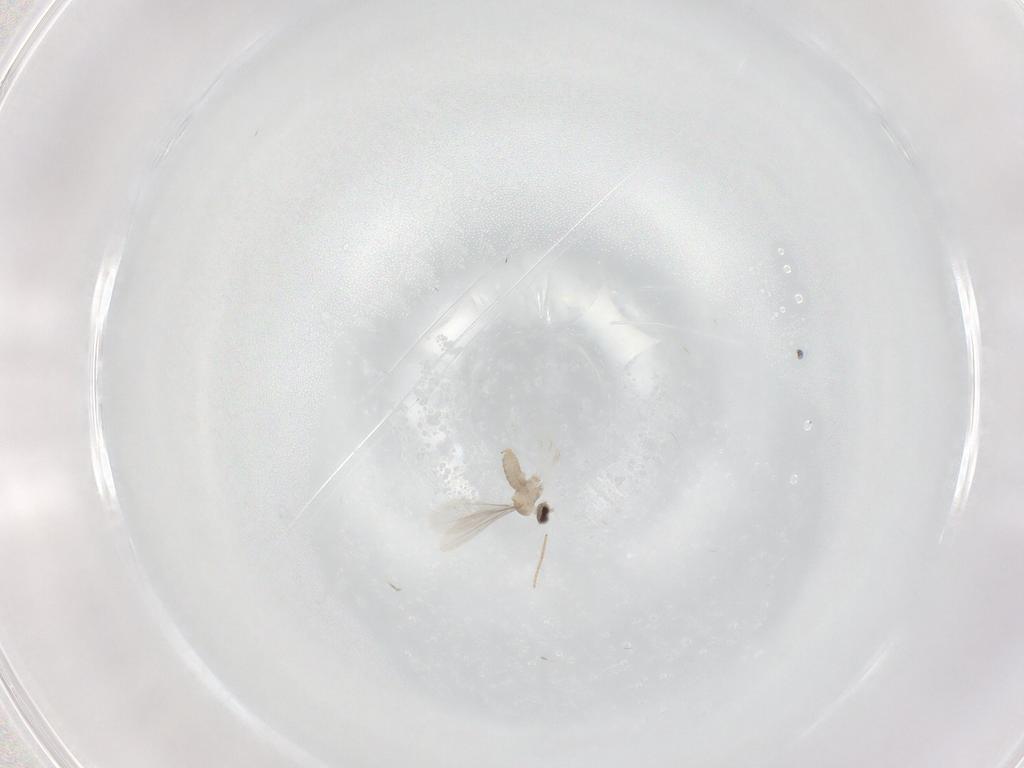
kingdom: Animalia
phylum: Arthropoda
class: Insecta
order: Diptera
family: Cecidomyiidae
